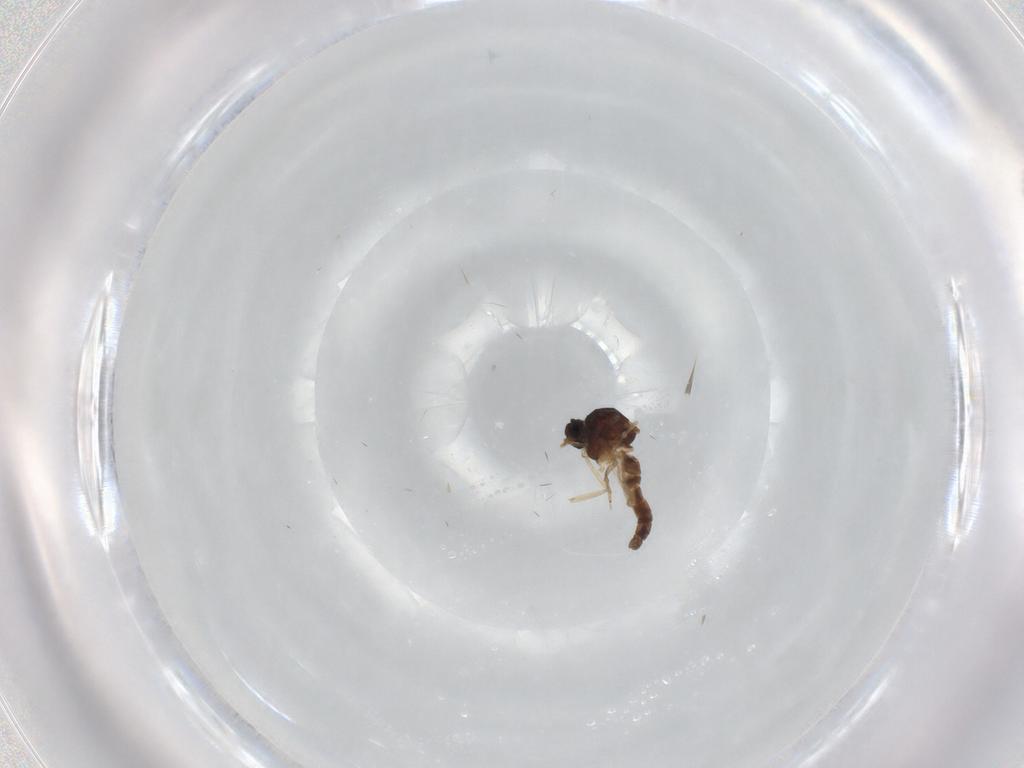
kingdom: Animalia
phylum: Arthropoda
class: Insecta
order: Diptera
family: Ceratopogonidae
